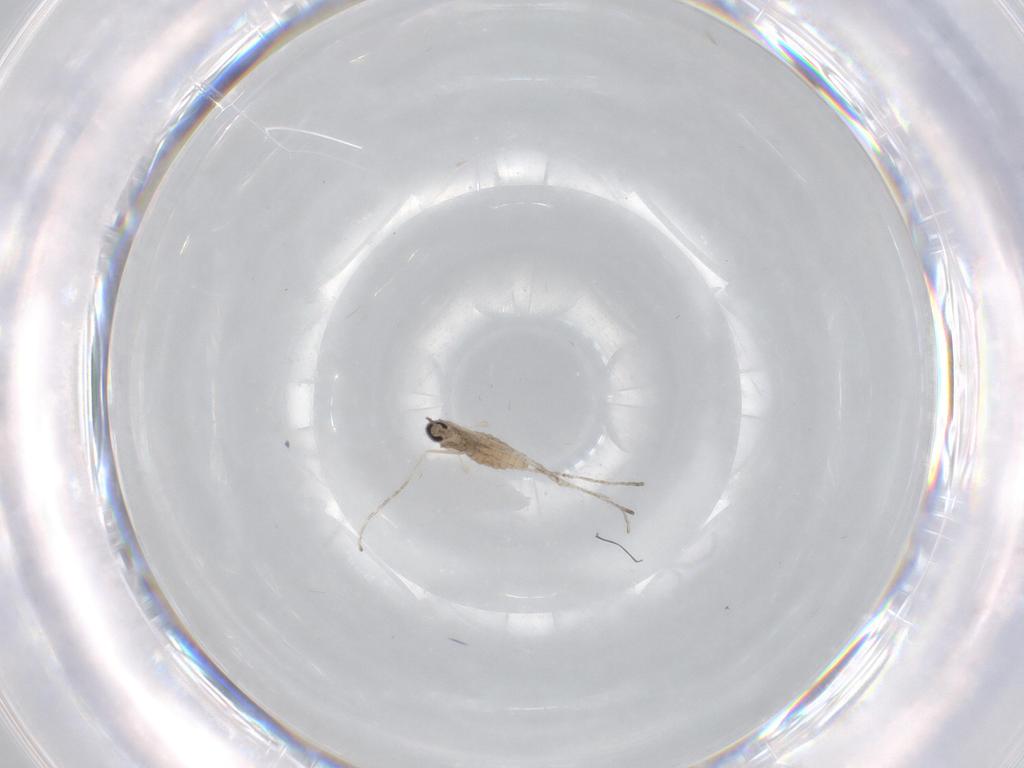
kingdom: Animalia
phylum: Arthropoda
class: Insecta
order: Diptera
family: Cecidomyiidae
